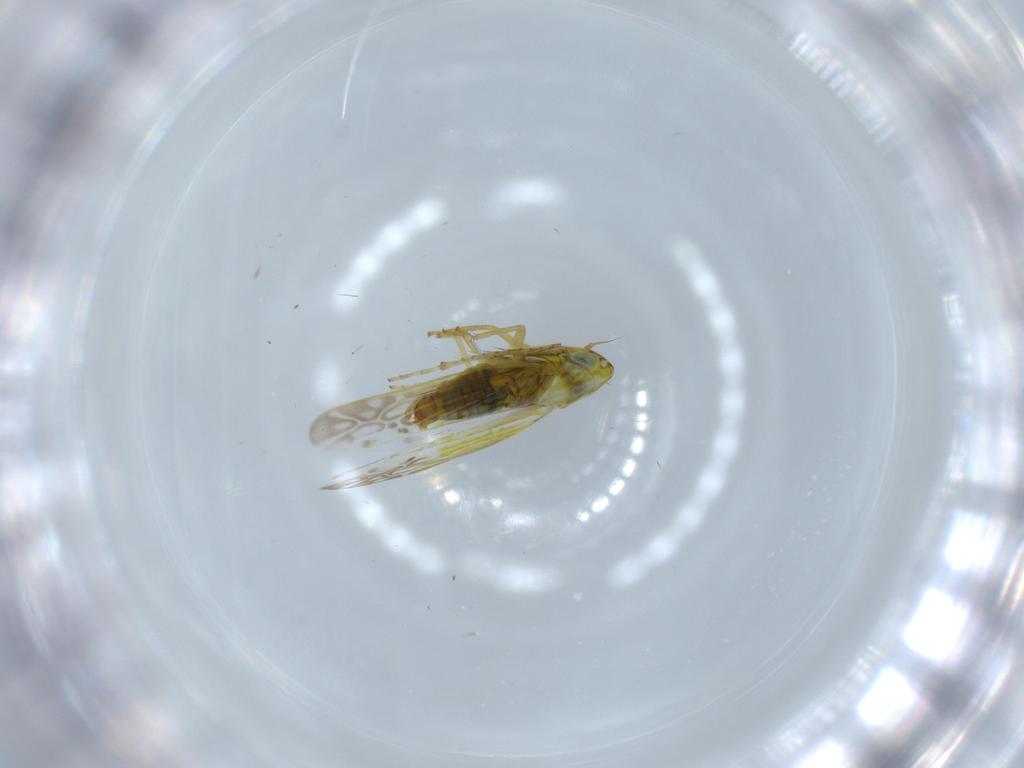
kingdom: Animalia
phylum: Arthropoda
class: Insecta
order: Hemiptera
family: Cicadellidae
